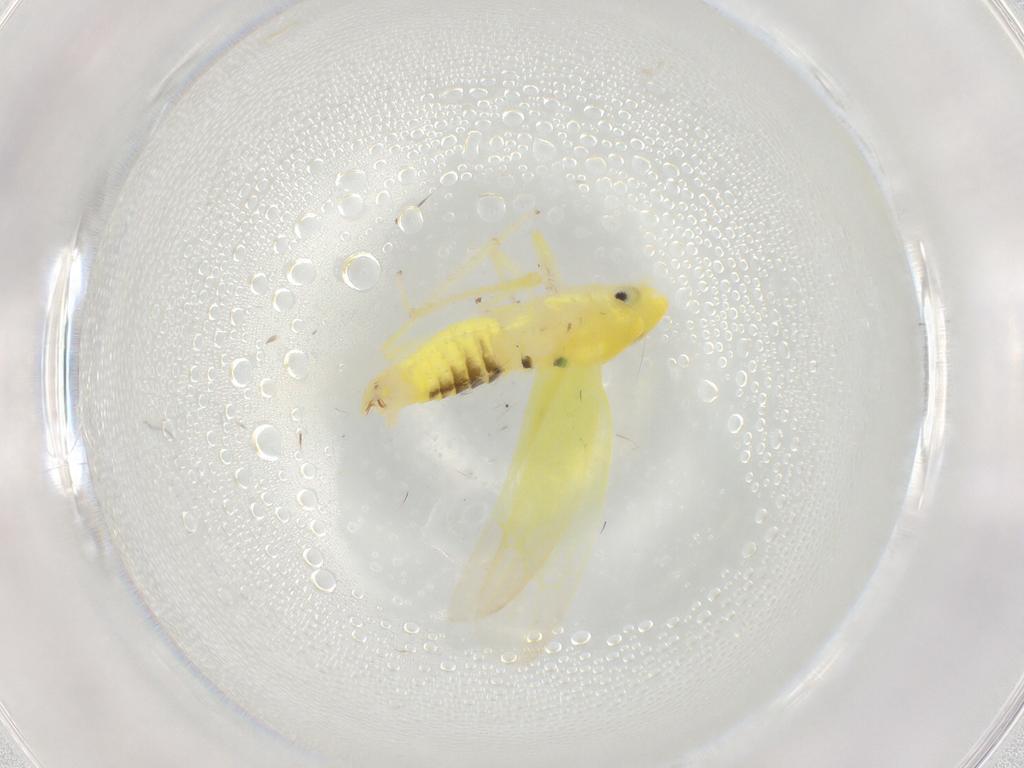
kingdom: Animalia
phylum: Arthropoda
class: Insecta
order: Hemiptera
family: Cicadellidae
